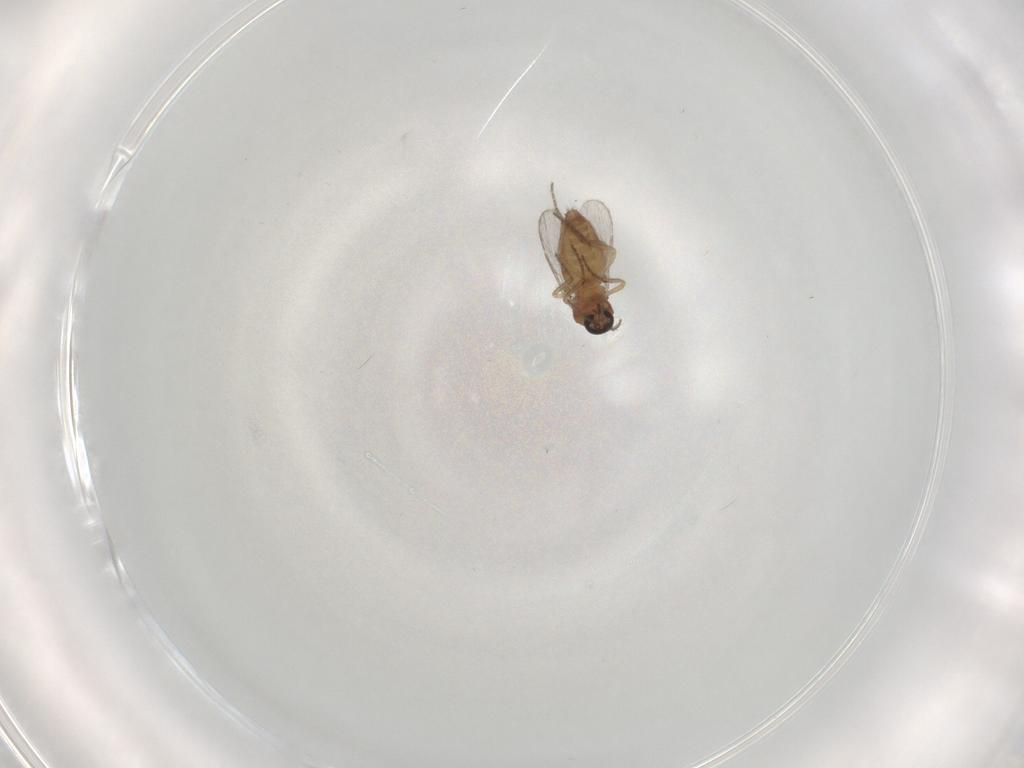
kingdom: Animalia
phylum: Arthropoda
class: Insecta
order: Diptera
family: Ceratopogonidae
